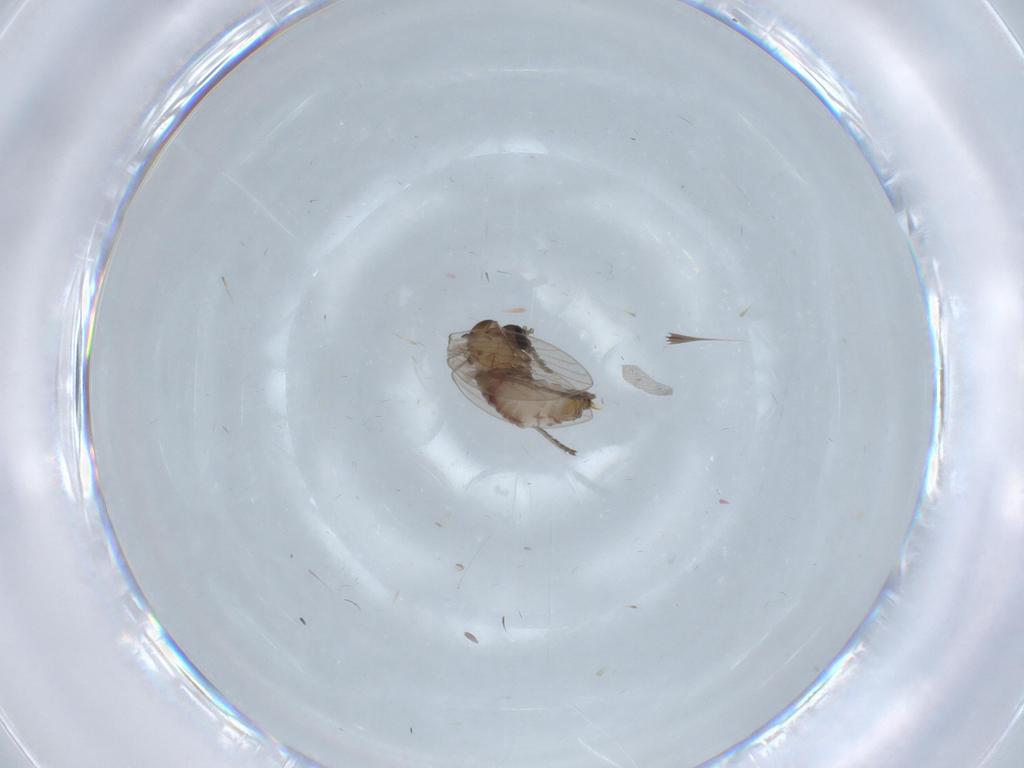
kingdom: Animalia
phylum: Arthropoda
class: Insecta
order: Diptera
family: Psychodidae
